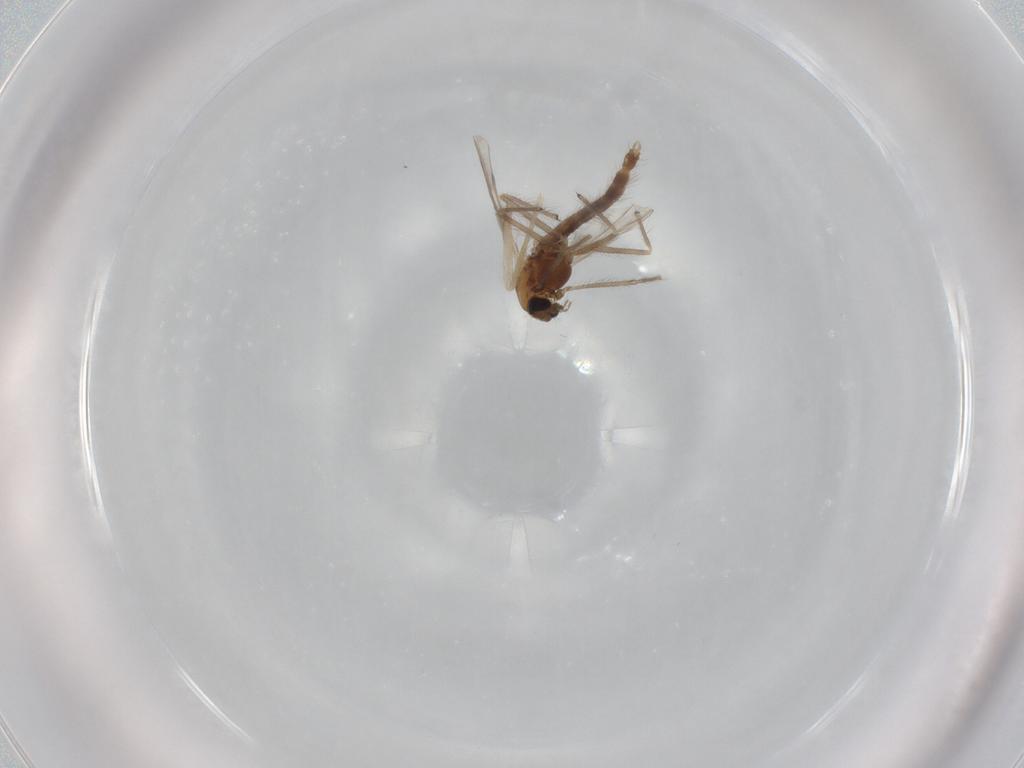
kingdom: Animalia
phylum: Arthropoda
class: Insecta
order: Diptera
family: Chironomidae
